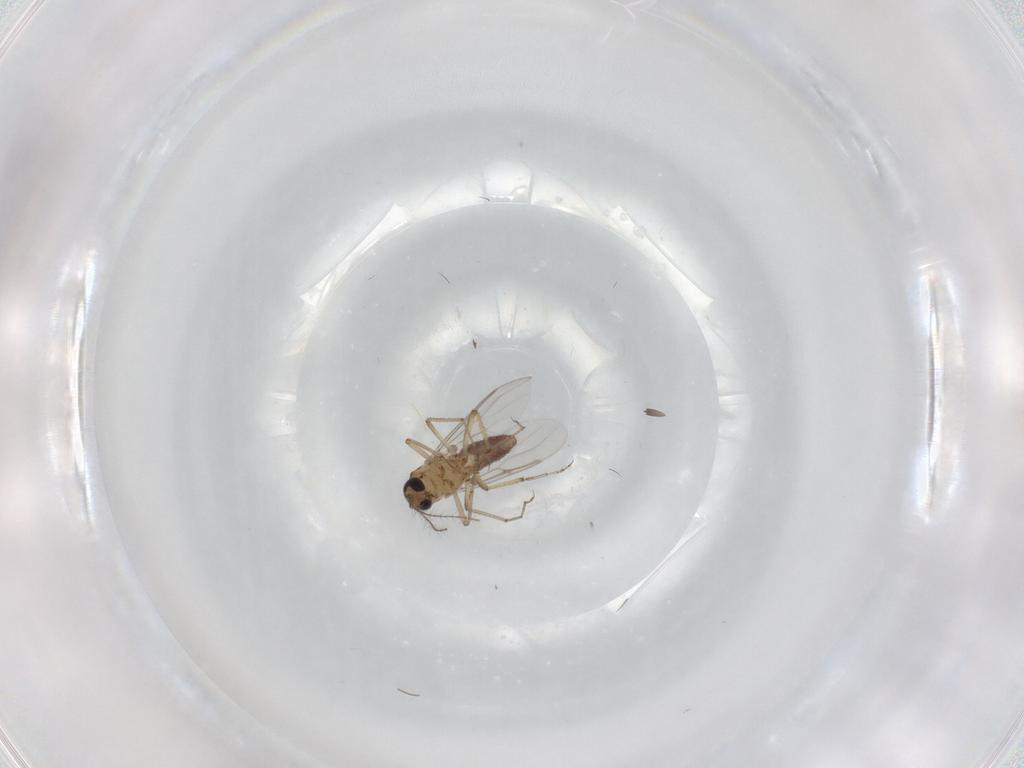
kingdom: Animalia
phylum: Arthropoda
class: Insecta
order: Diptera
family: Ceratopogonidae
